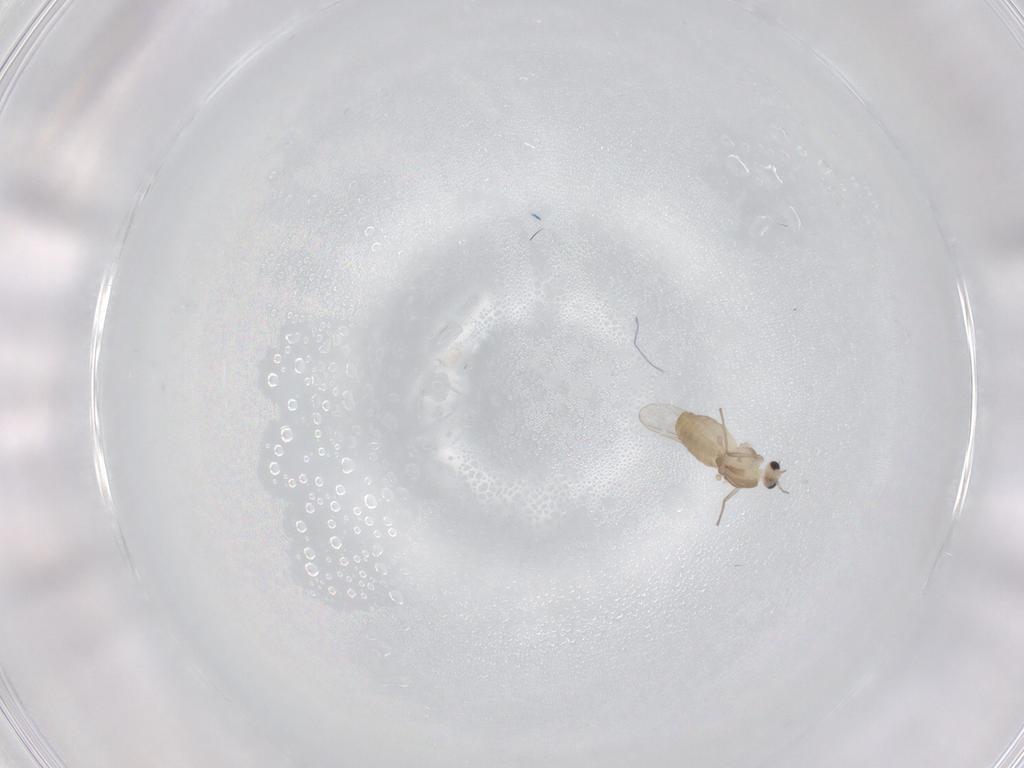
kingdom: Animalia
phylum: Arthropoda
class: Insecta
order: Diptera
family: Chironomidae
